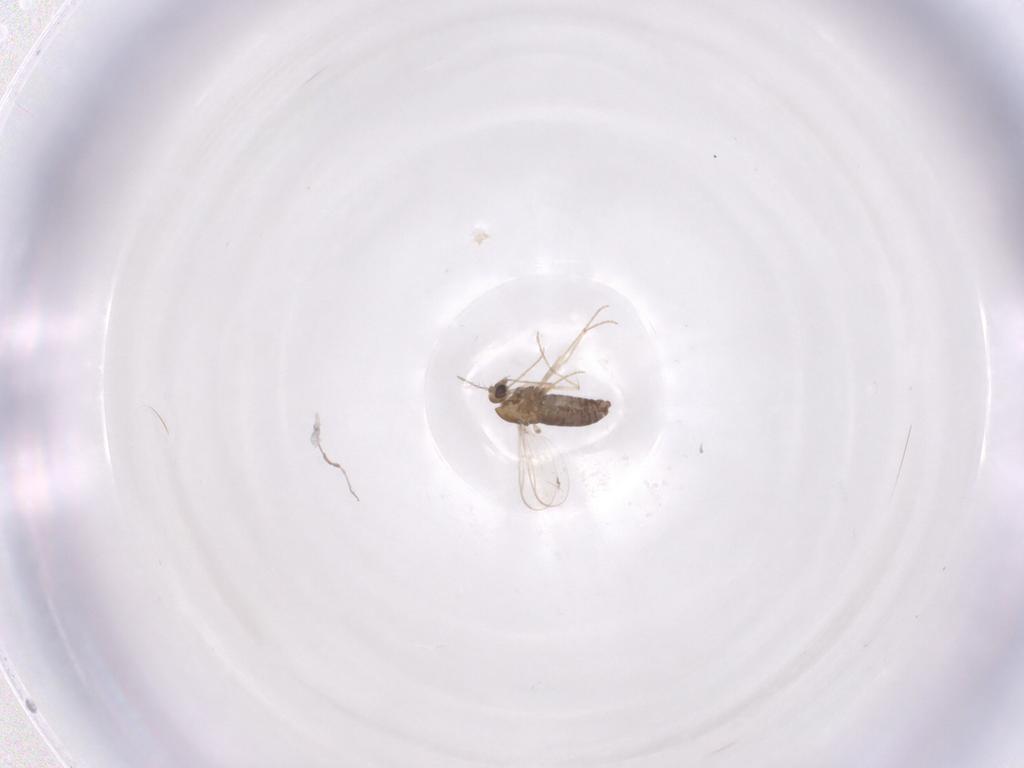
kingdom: Animalia
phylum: Arthropoda
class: Insecta
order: Diptera
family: Chironomidae
